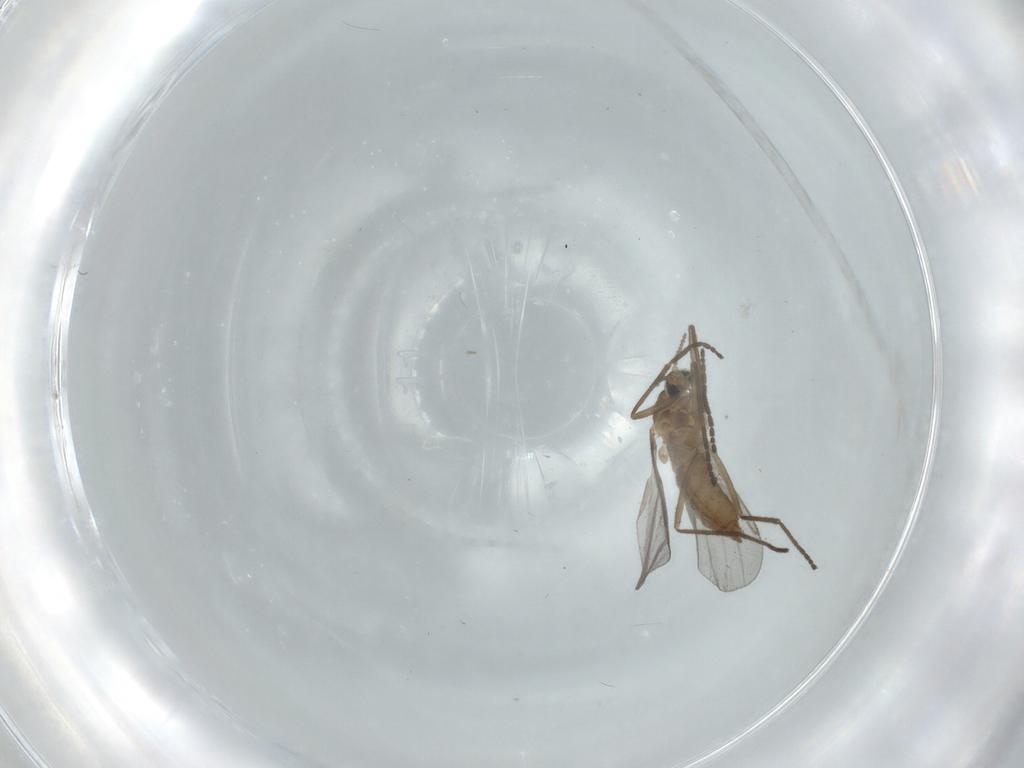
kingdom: Animalia
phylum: Arthropoda
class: Insecta
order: Diptera
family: Cecidomyiidae
